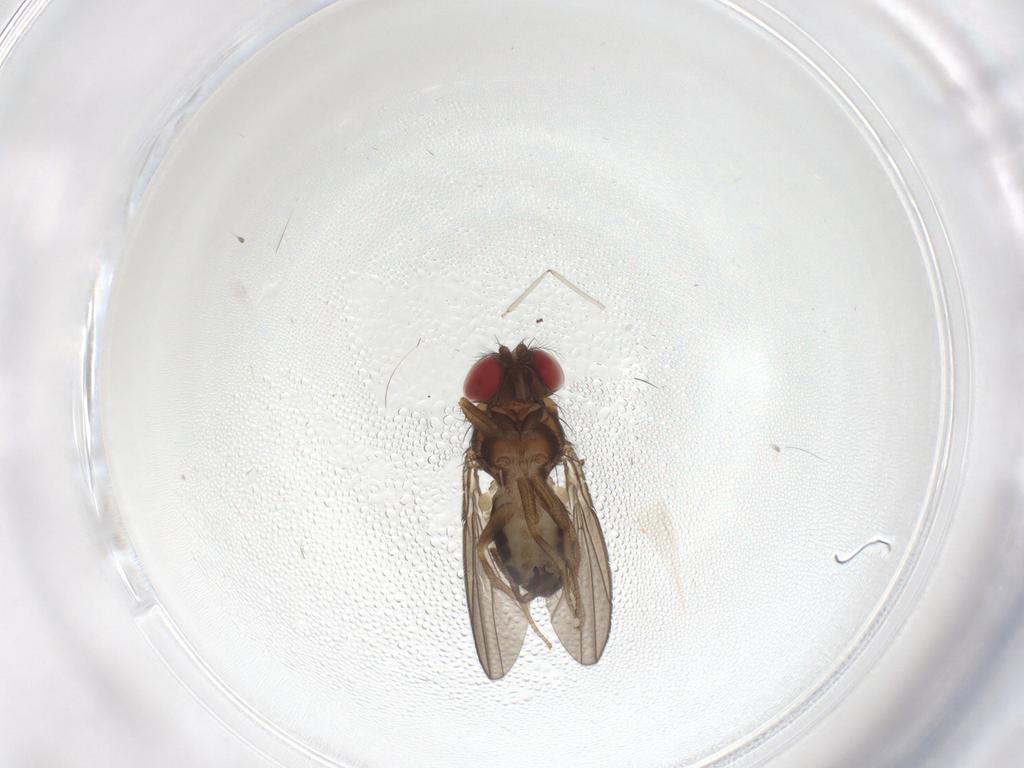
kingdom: Animalia
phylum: Arthropoda
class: Insecta
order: Diptera
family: Drosophilidae
